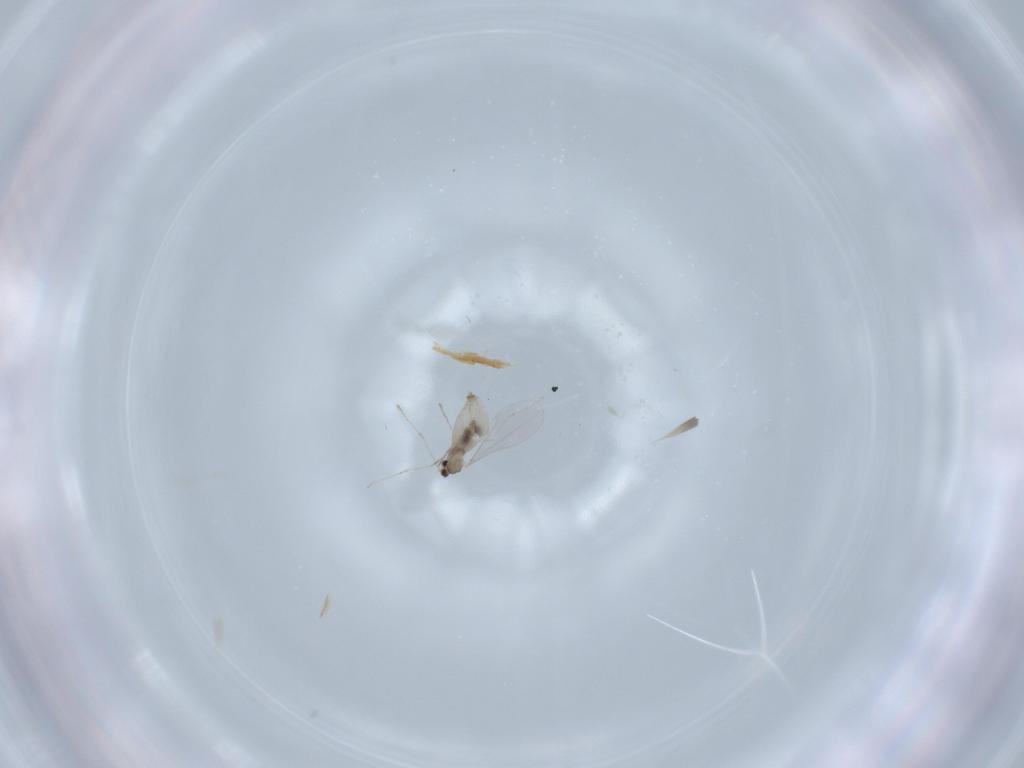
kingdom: Animalia
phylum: Arthropoda
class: Insecta
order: Diptera
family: Cecidomyiidae
